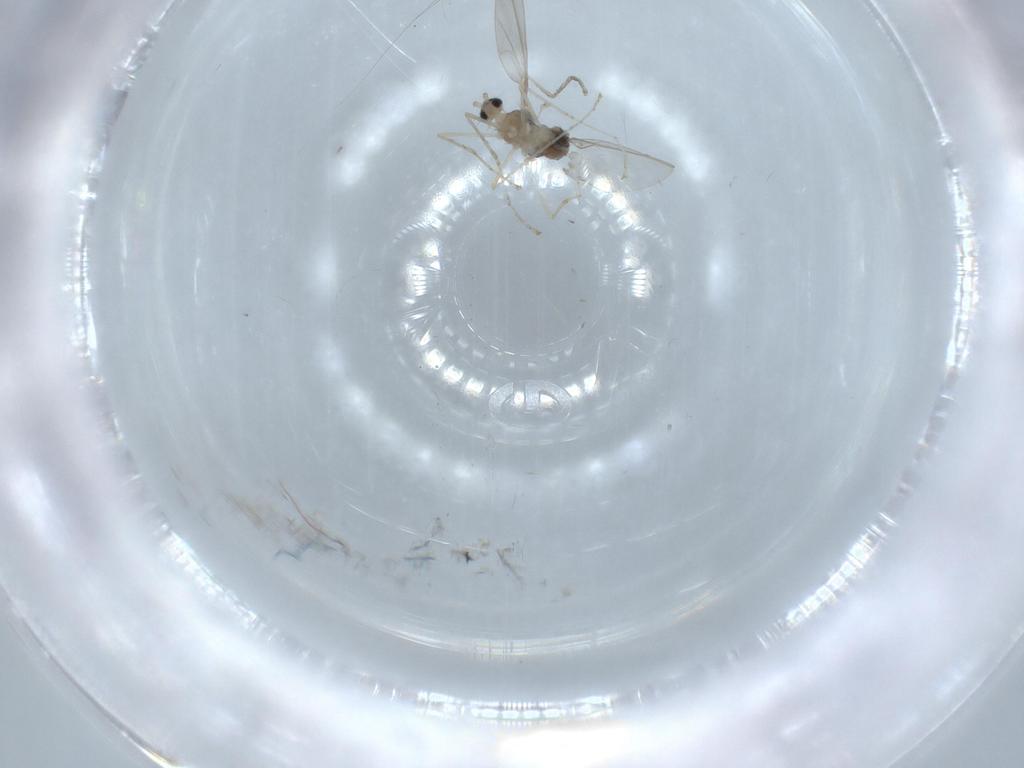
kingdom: Animalia
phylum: Arthropoda
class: Insecta
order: Diptera
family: Cecidomyiidae
